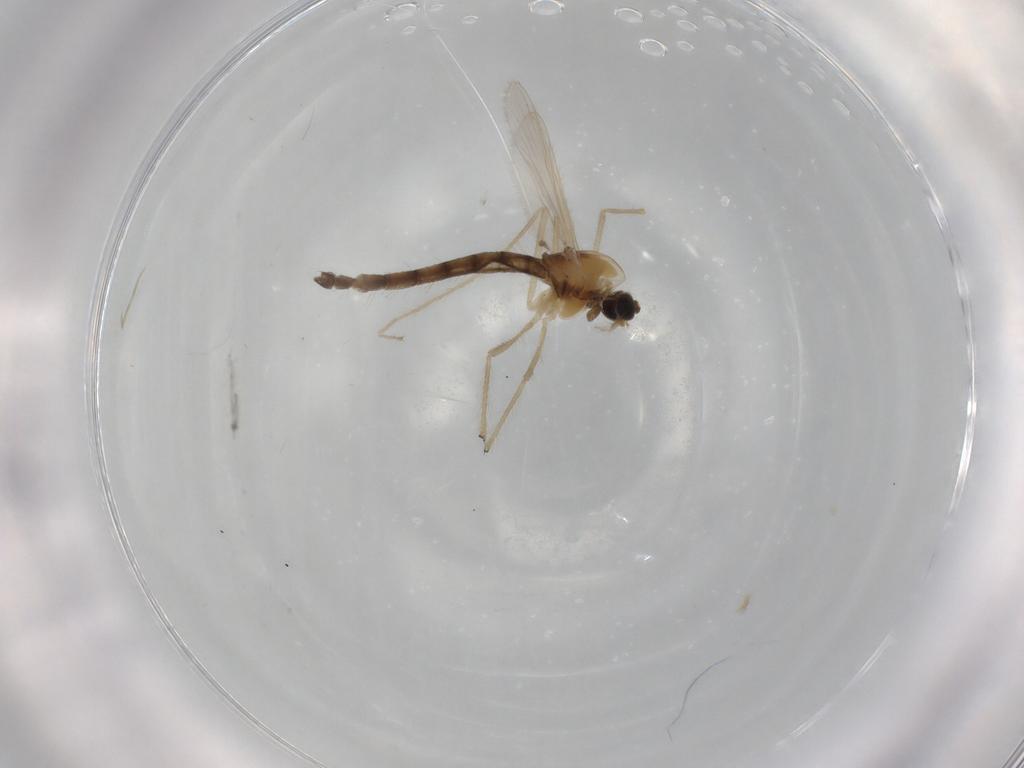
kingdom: Animalia
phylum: Arthropoda
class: Insecta
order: Diptera
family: Chironomidae
